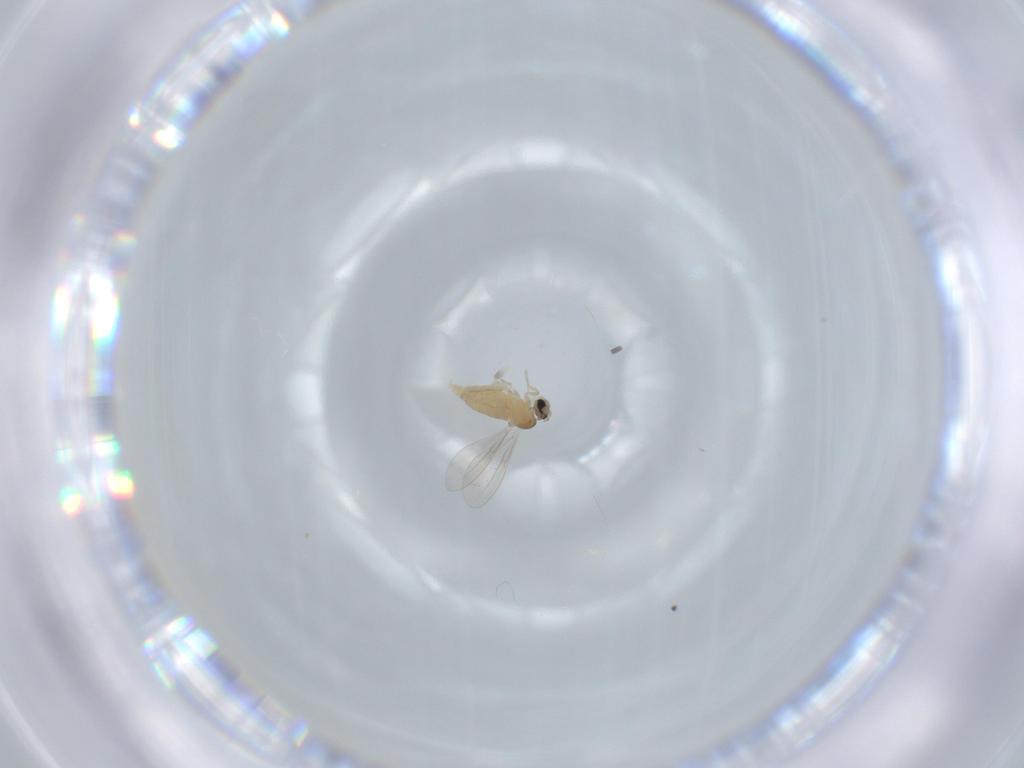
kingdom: Animalia
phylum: Arthropoda
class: Insecta
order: Diptera
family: Cecidomyiidae
